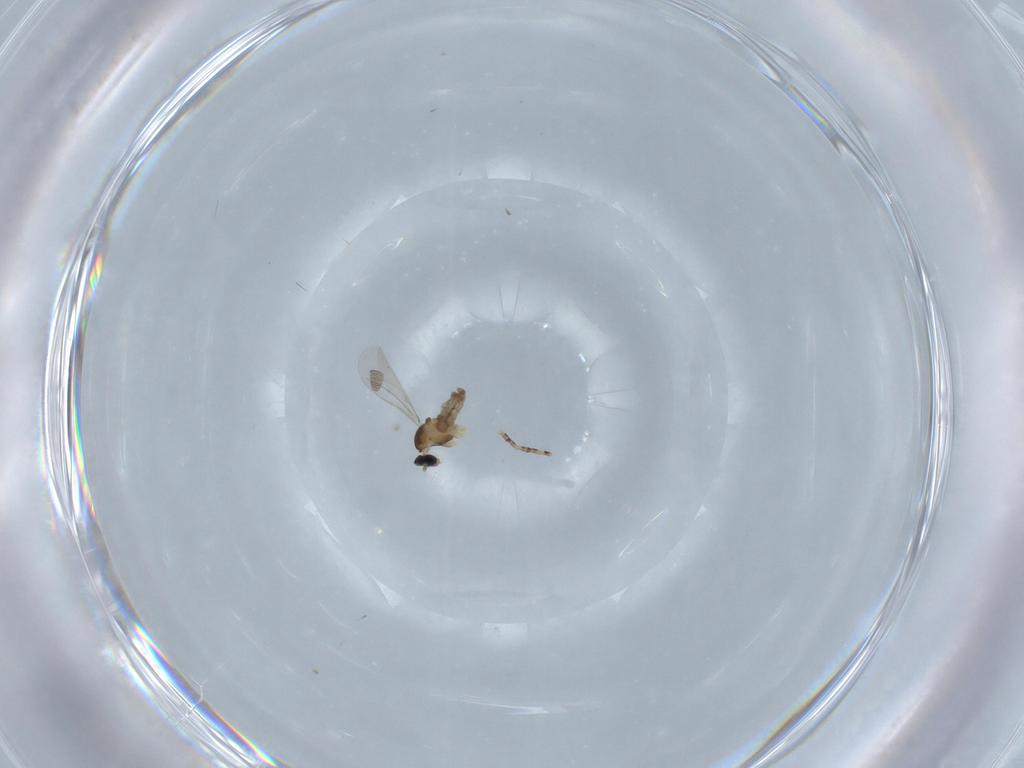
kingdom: Animalia
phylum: Arthropoda
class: Insecta
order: Diptera
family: Cecidomyiidae
